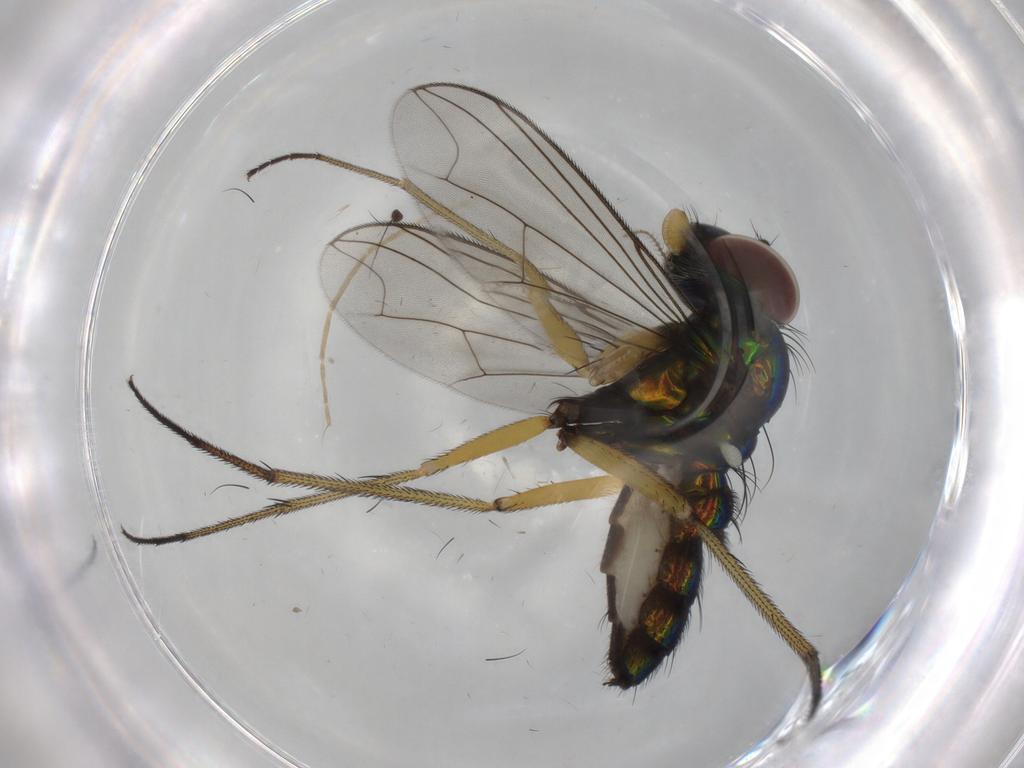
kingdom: Animalia
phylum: Arthropoda
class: Insecta
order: Diptera
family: Dolichopodidae
